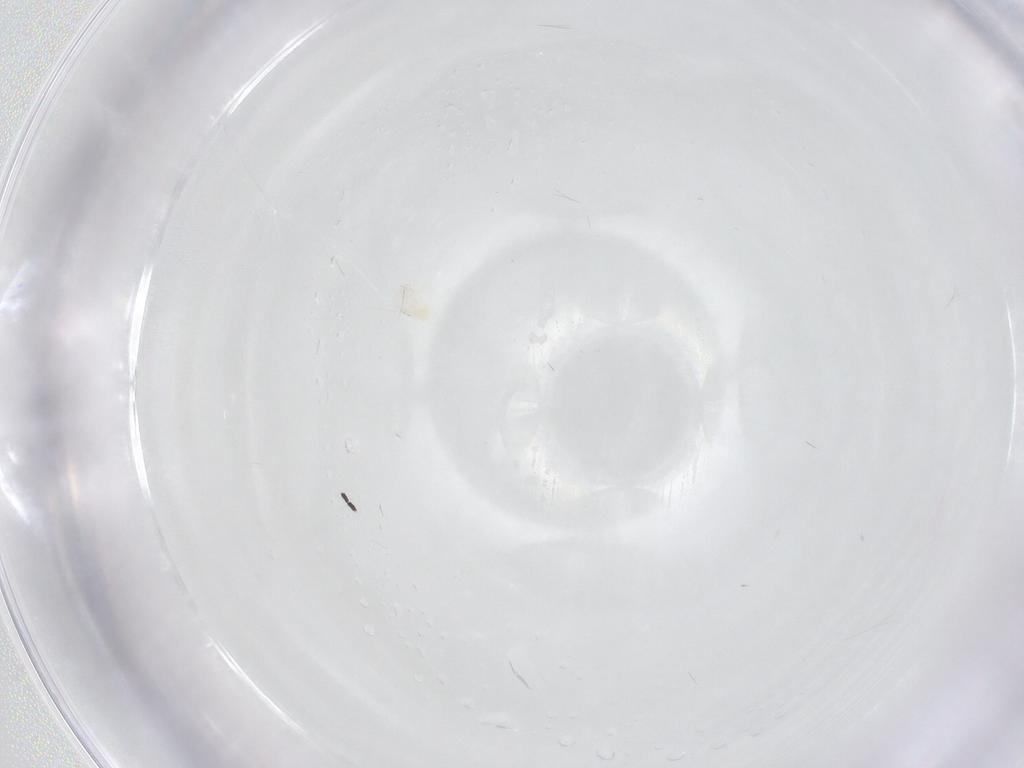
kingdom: Animalia
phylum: Arthropoda
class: Arachnida
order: Trombidiformes
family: Anystidae
